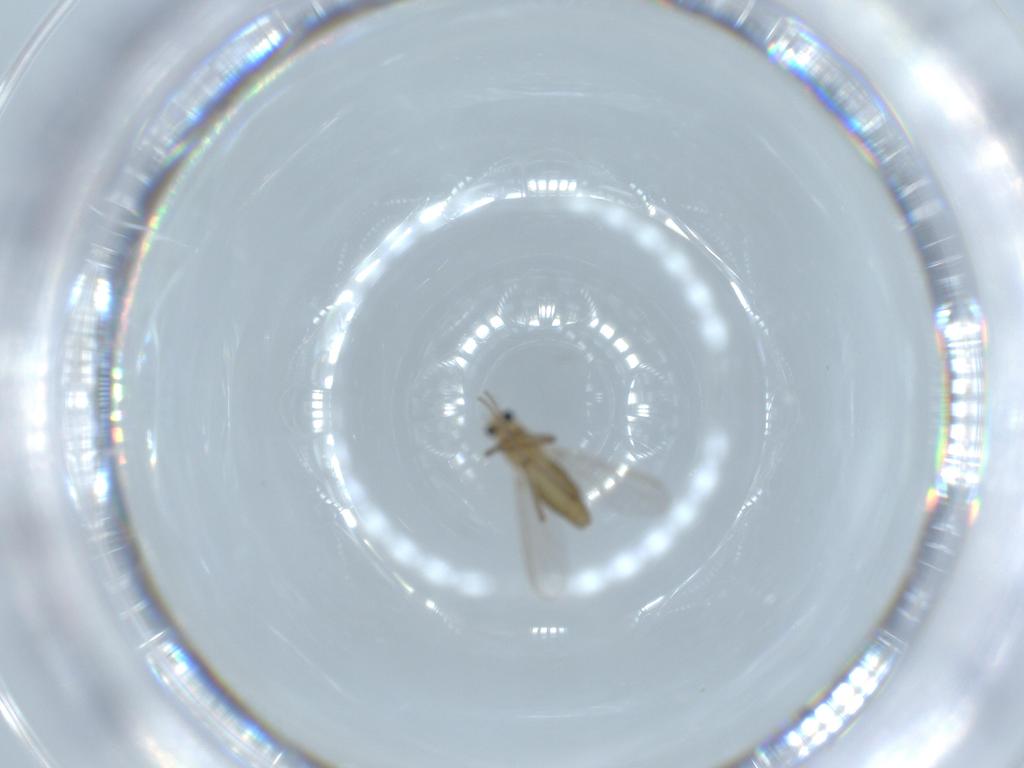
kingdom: Animalia
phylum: Arthropoda
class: Insecta
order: Diptera
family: Chironomidae
